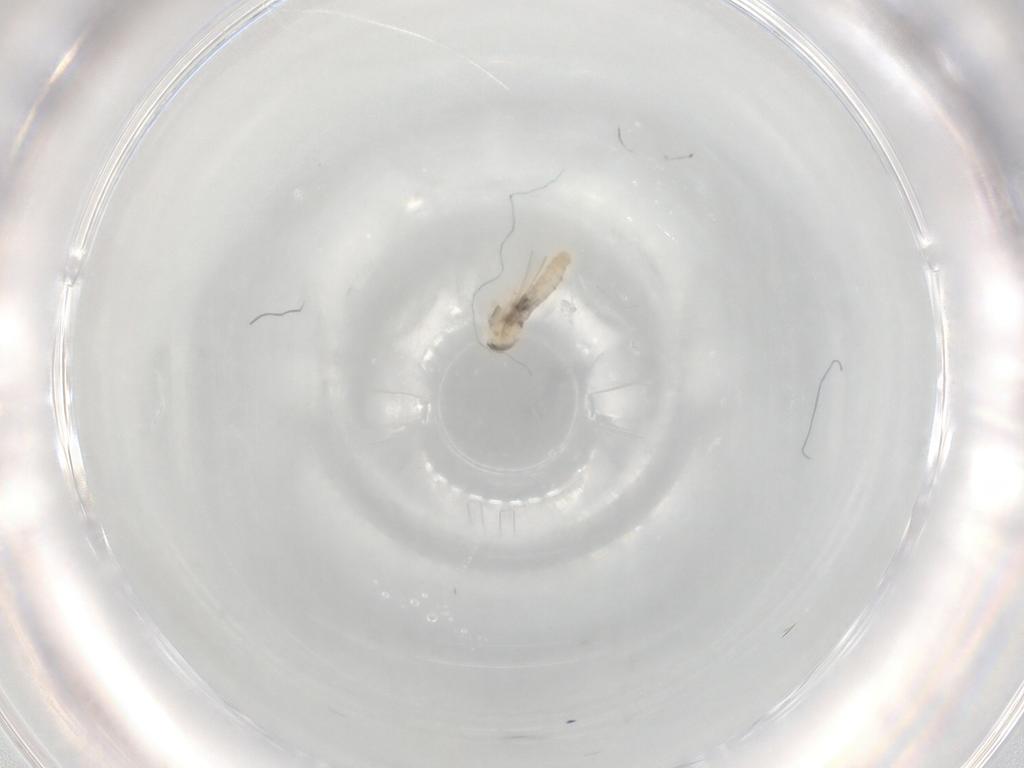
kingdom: Animalia
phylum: Arthropoda
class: Insecta
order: Diptera
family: Cecidomyiidae
